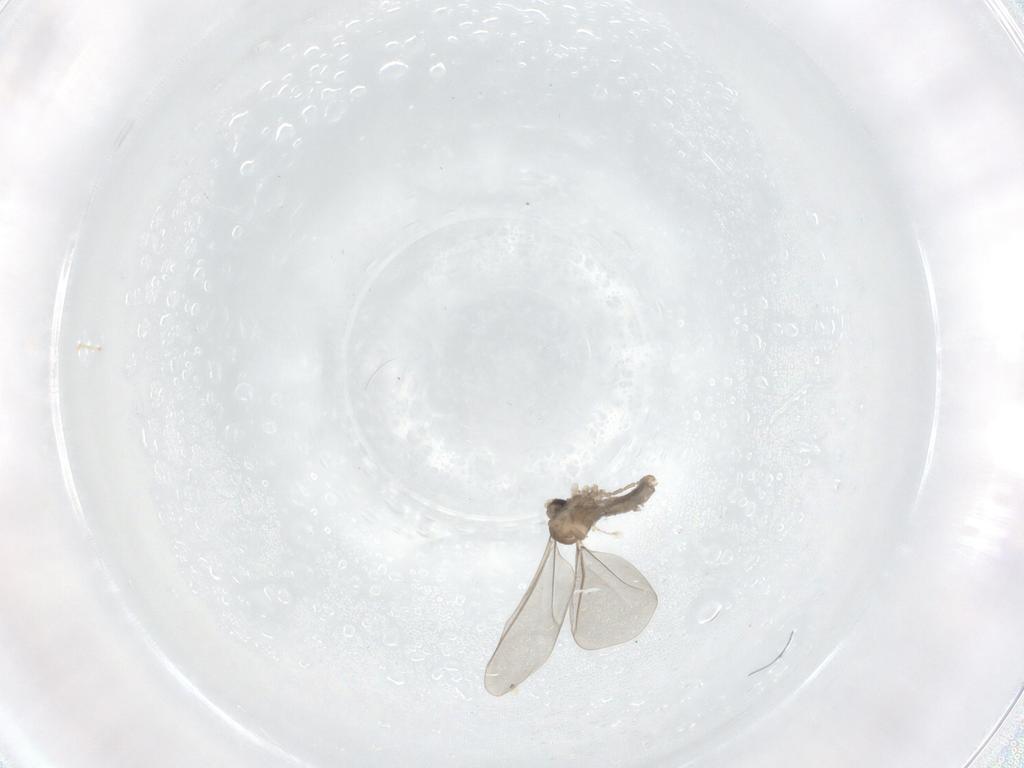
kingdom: Animalia
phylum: Arthropoda
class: Insecta
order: Diptera
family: Cecidomyiidae
